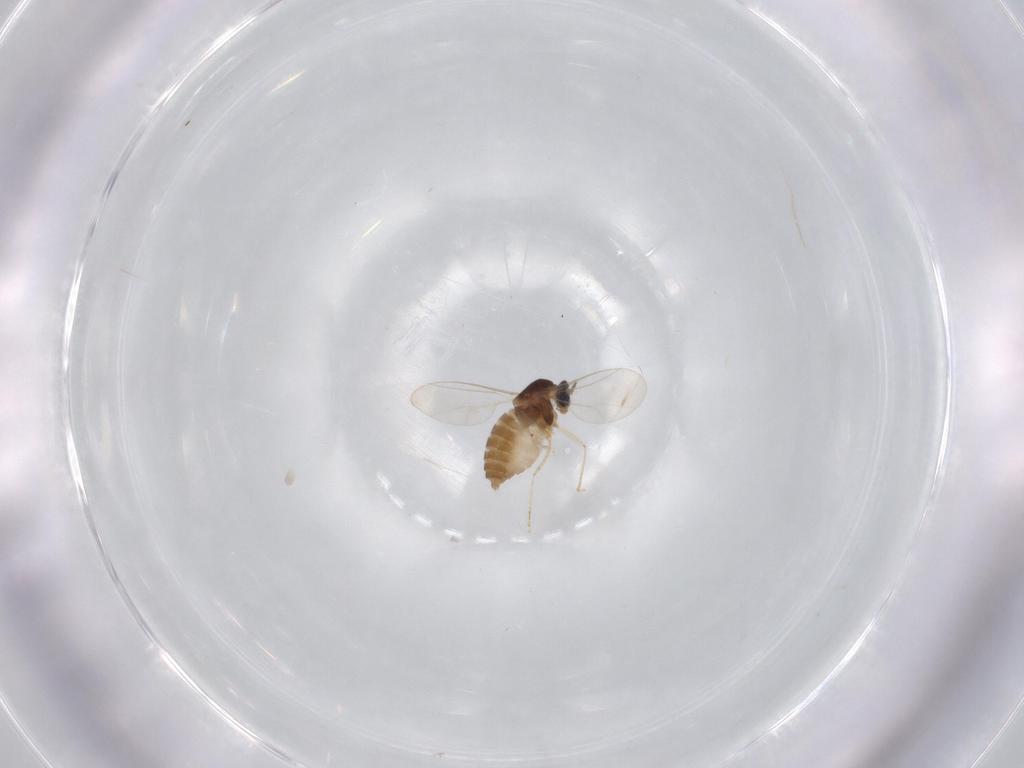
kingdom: Animalia
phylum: Arthropoda
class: Insecta
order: Diptera
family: Cecidomyiidae
